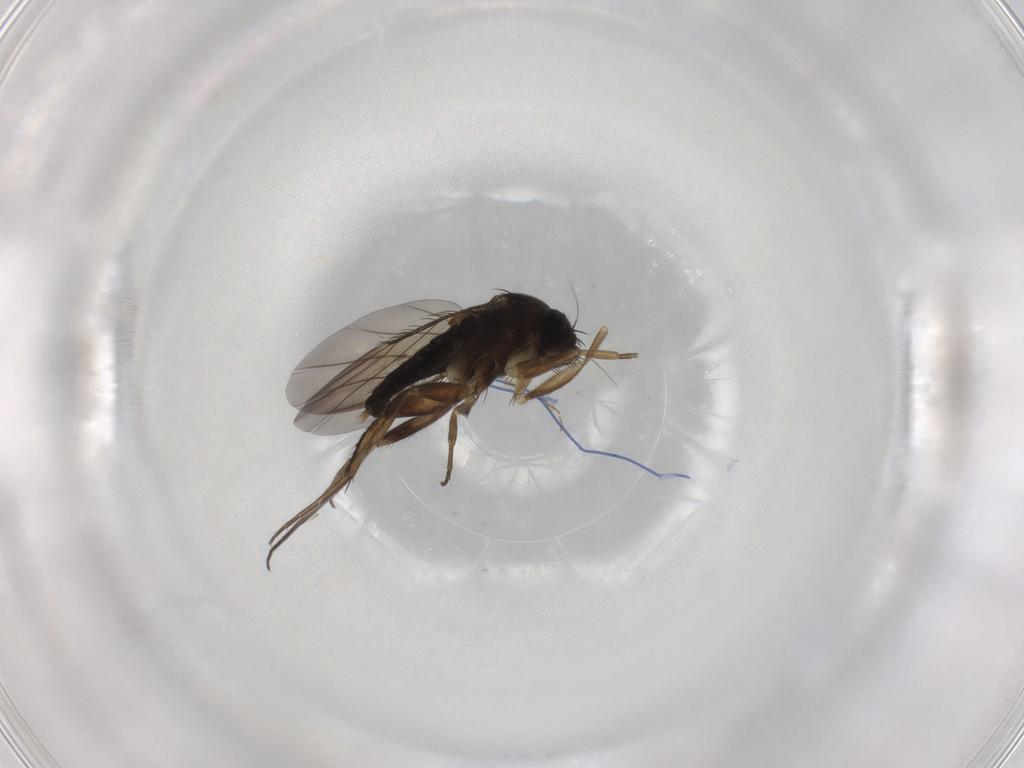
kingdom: Animalia
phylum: Arthropoda
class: Insecta
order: Diptera
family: Phoridae
